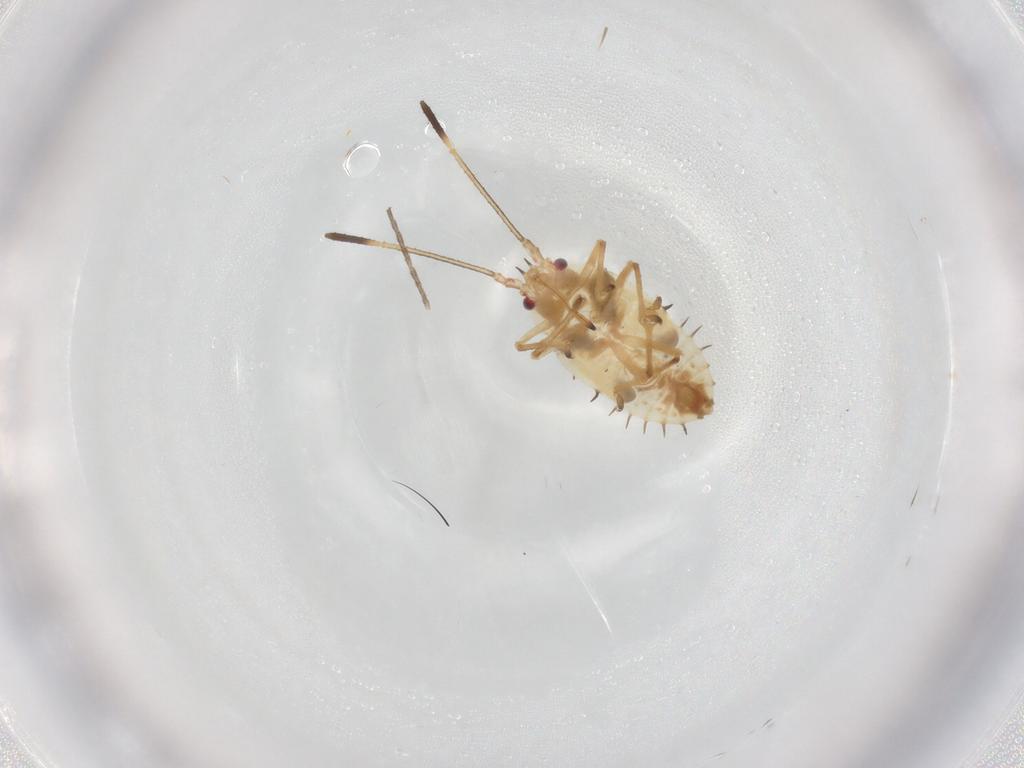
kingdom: Animalia
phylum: Arthropoda
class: Insecta
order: Hemiptera
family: Tingidae
